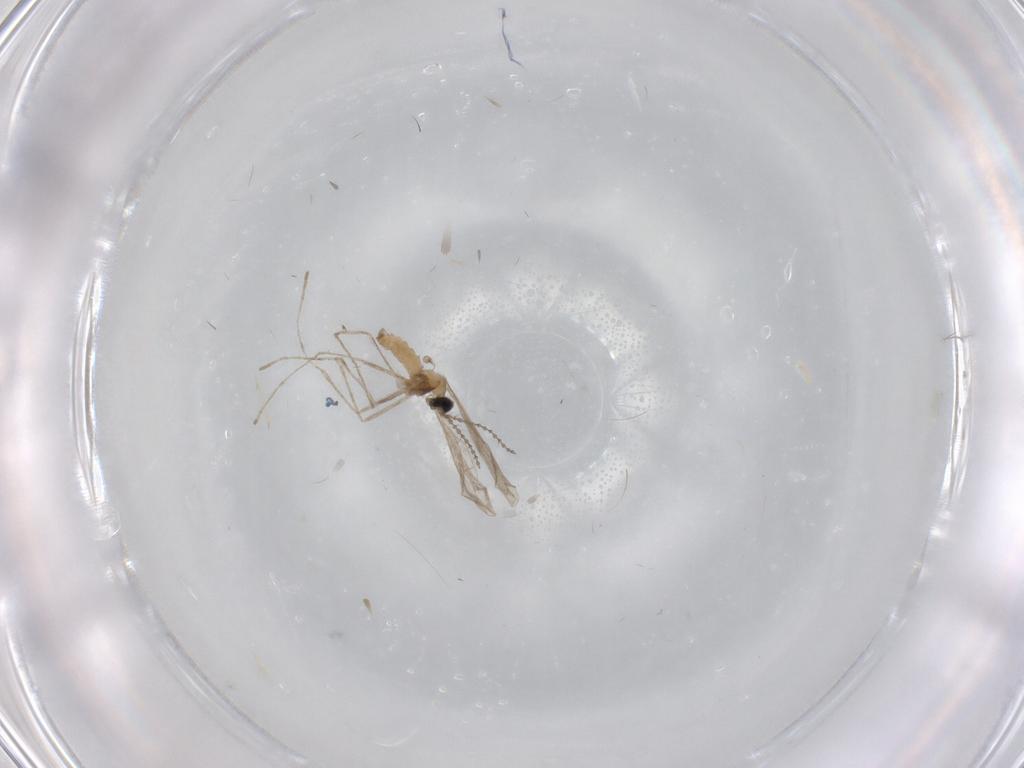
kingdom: Animalia
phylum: Arthropoda
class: Insecta
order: Diptera
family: Cecidomyiidae
